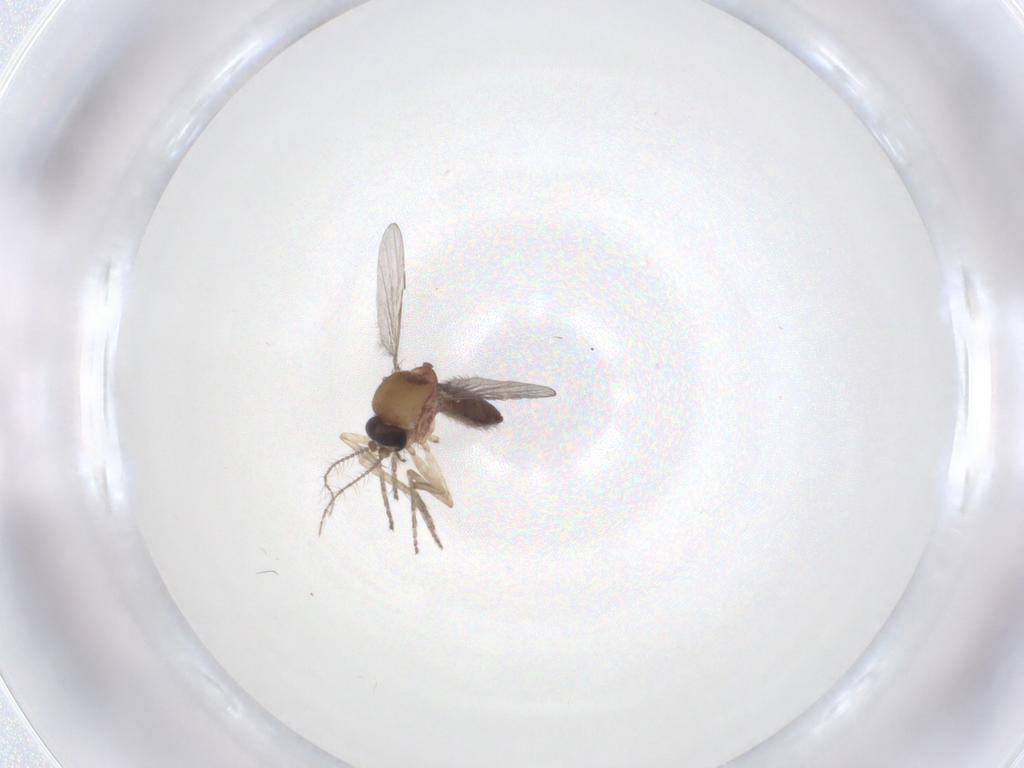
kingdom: Animalia
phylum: Arthropoda
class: Insecta
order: Diptera
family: Ceratopogonidae
